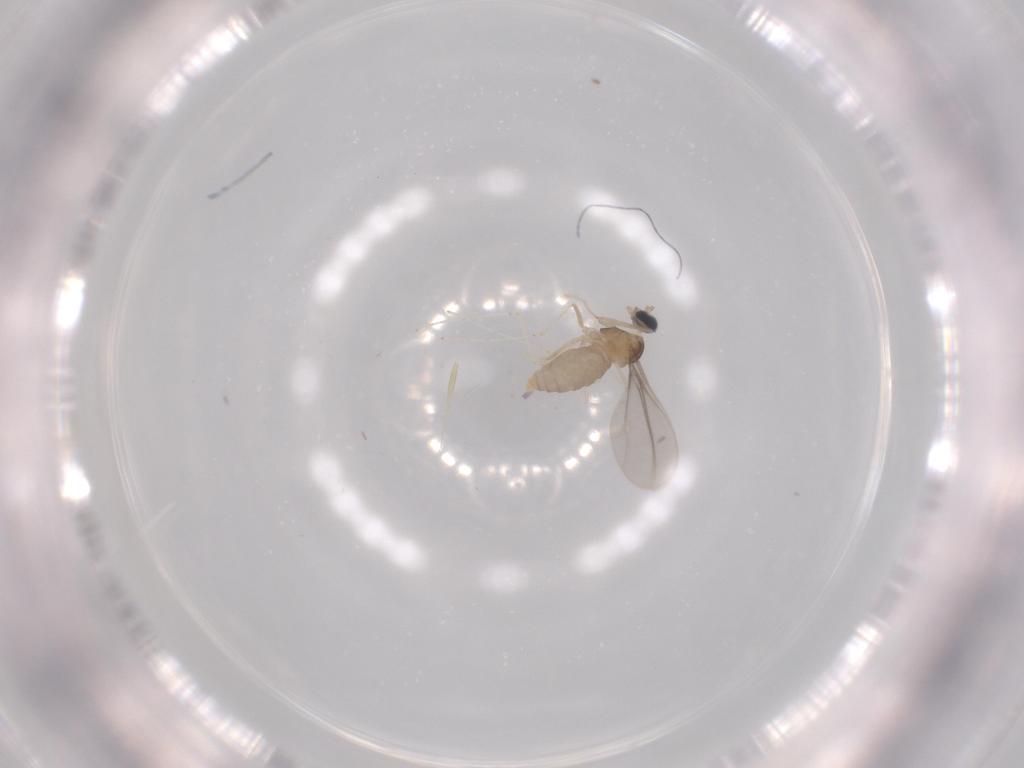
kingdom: Animalia
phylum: Arthropoda
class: Insecta
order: Diptera
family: Cecidomyiidae
